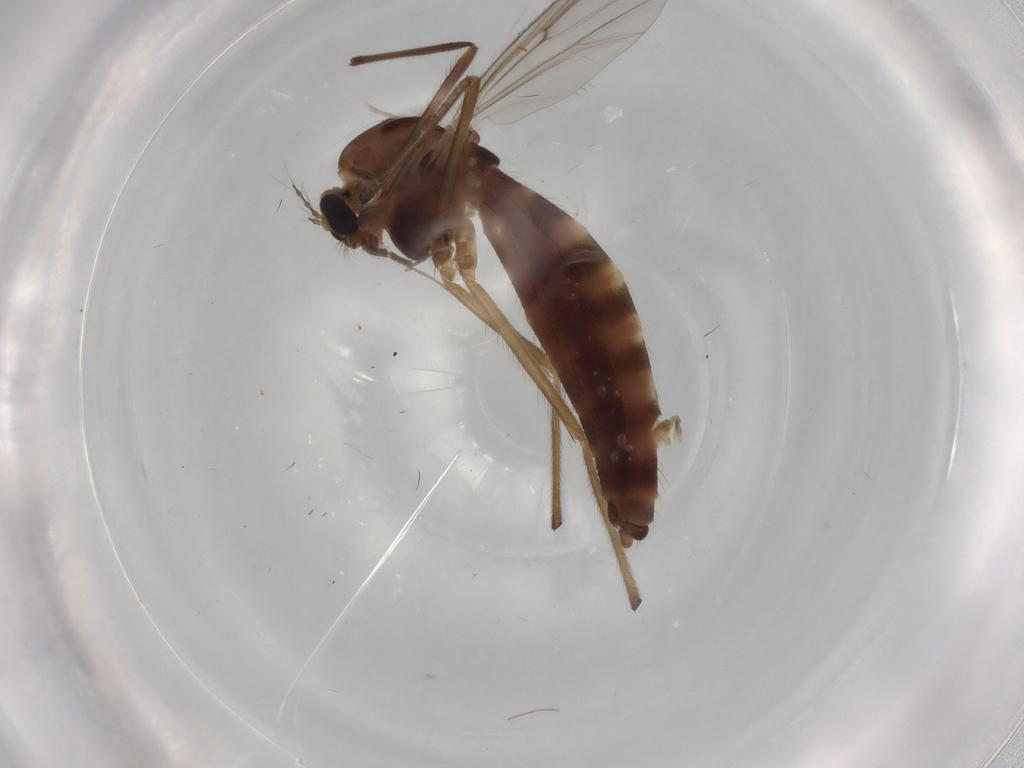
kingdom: Animalia
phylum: Arthropoda
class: Insecta
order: Diptera
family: Chironomidae
